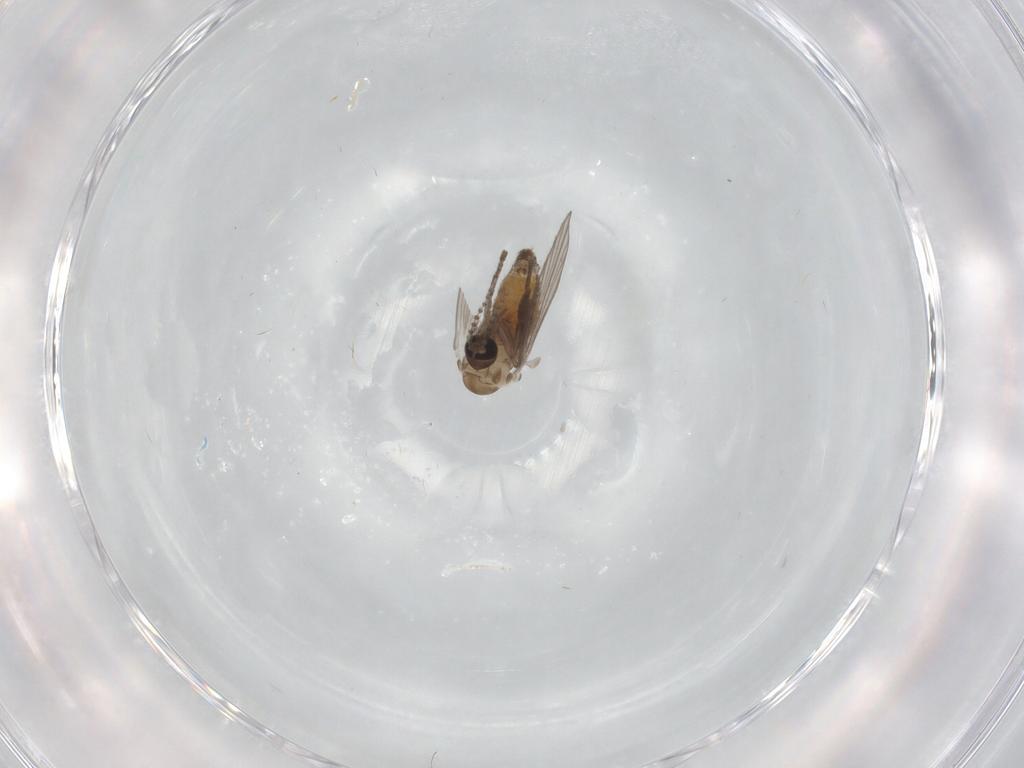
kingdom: Animalia
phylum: Arthropoda
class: Insecta
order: Diptera
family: Psychodidae
